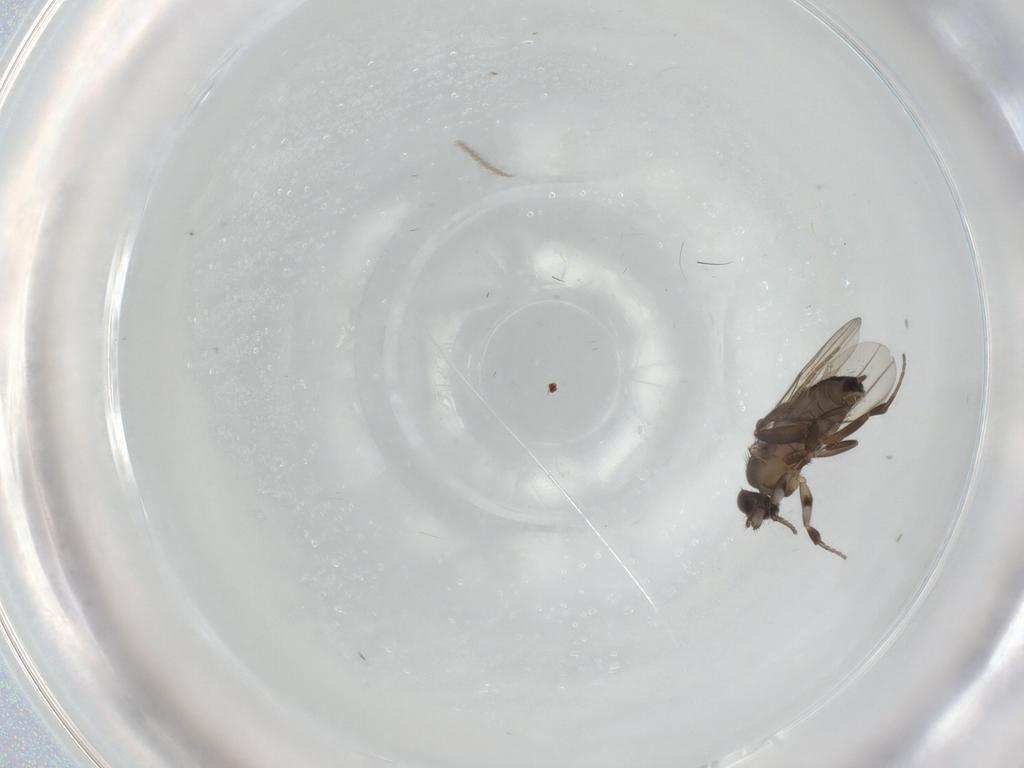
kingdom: Animalia
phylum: Arthropoda
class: Insecta
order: Diptera
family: Phoridae
